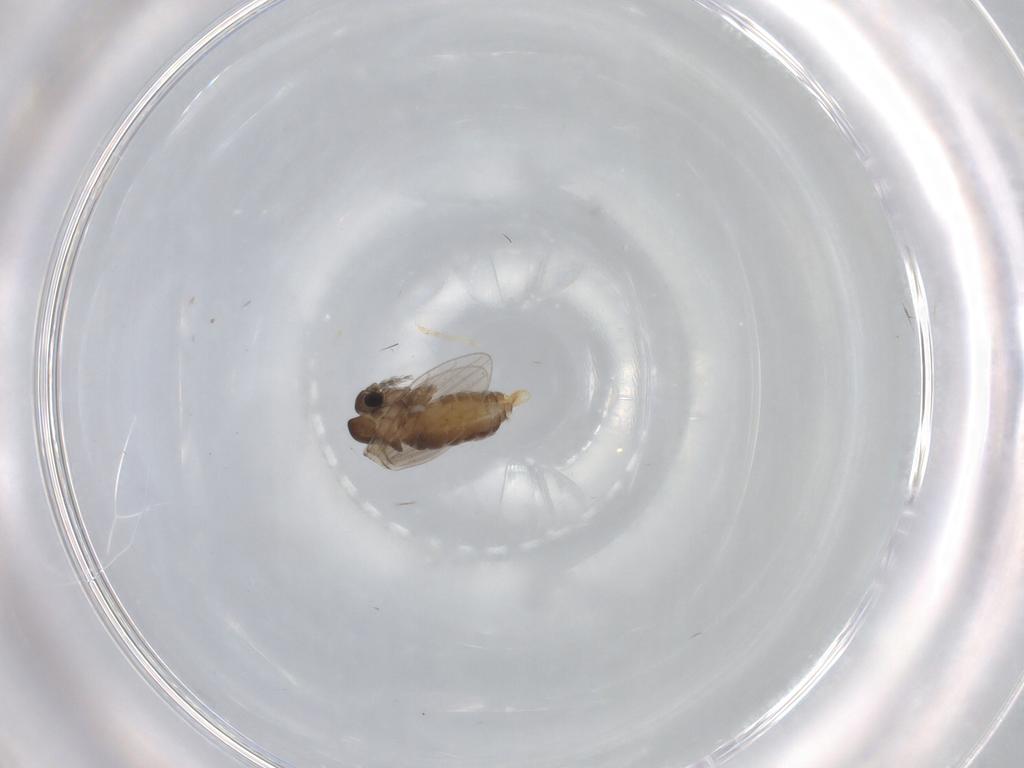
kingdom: Animalia
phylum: Arthropoda
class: Insecta
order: Diptera
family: Psychodidae
